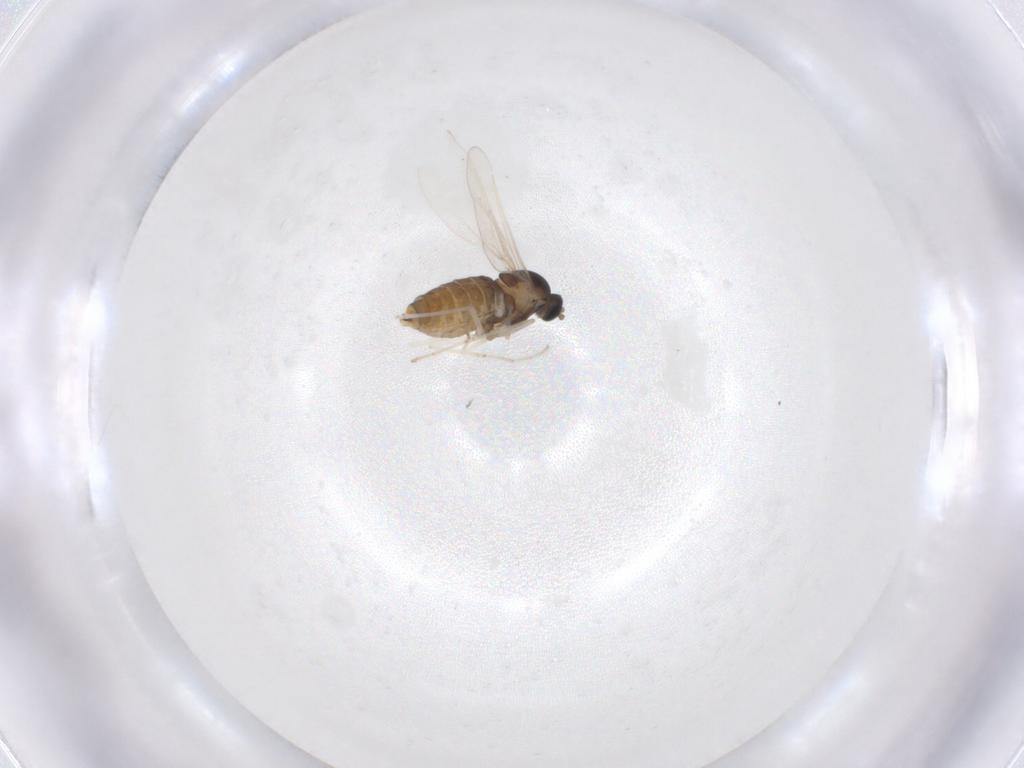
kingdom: Animalia
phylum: Arthropoda
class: Insecta
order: Diptera
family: Cecidomyiidae
